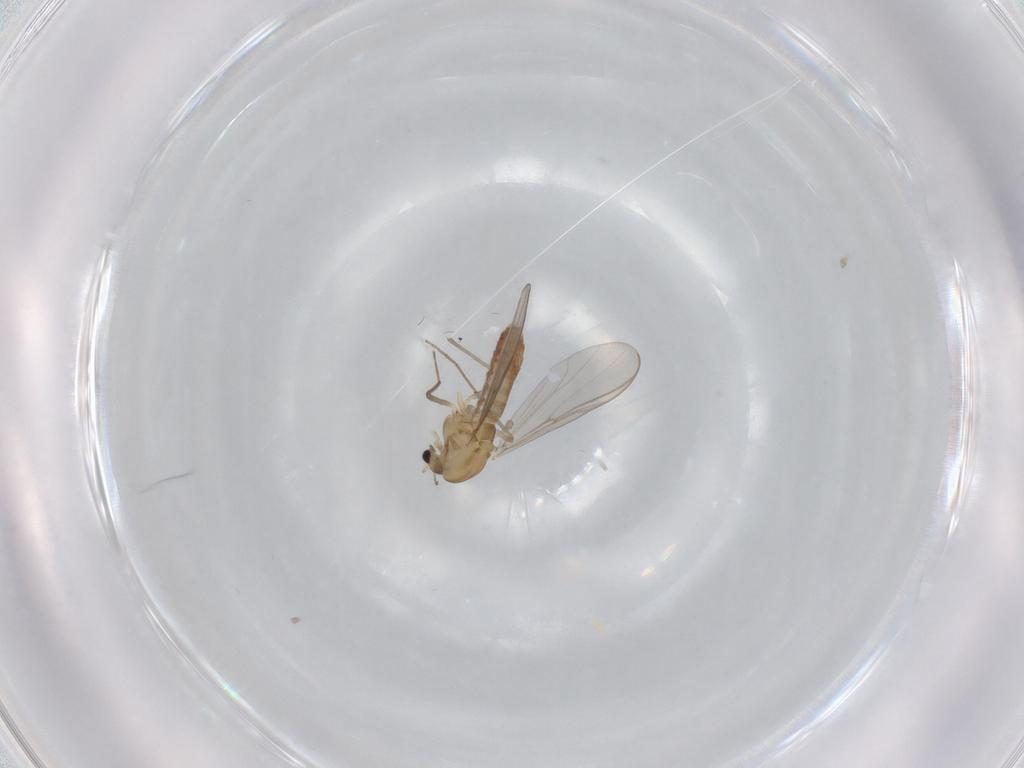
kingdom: Animalia
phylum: Arthropoda
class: Insecta
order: Diptera
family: Chironomidae
